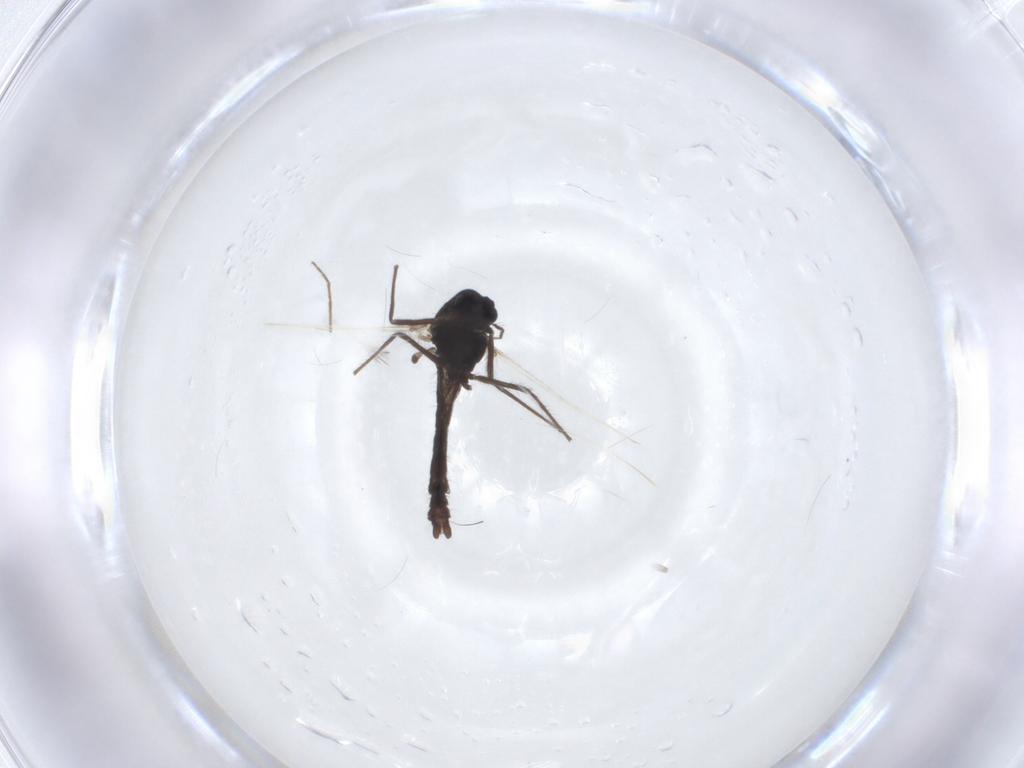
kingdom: Animalia
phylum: Arthropoda
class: Insecta
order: Diptera
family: Chironomidae
